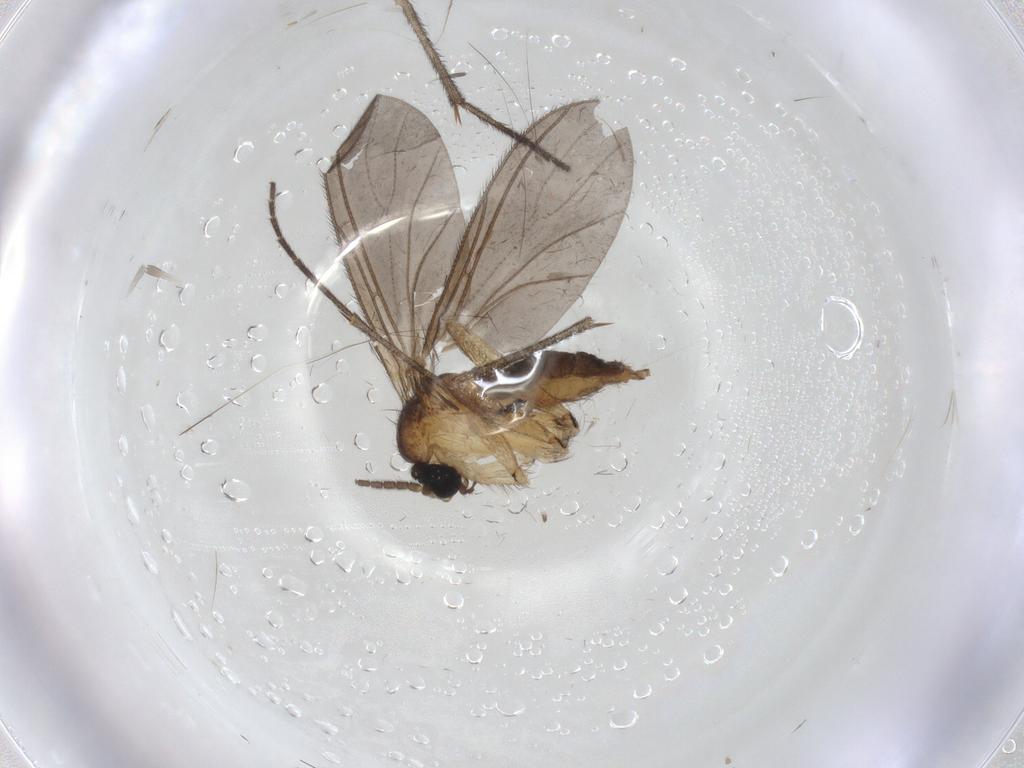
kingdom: Animalia
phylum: Arthropoda
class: Insecta
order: Diptera
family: Sciaridae
